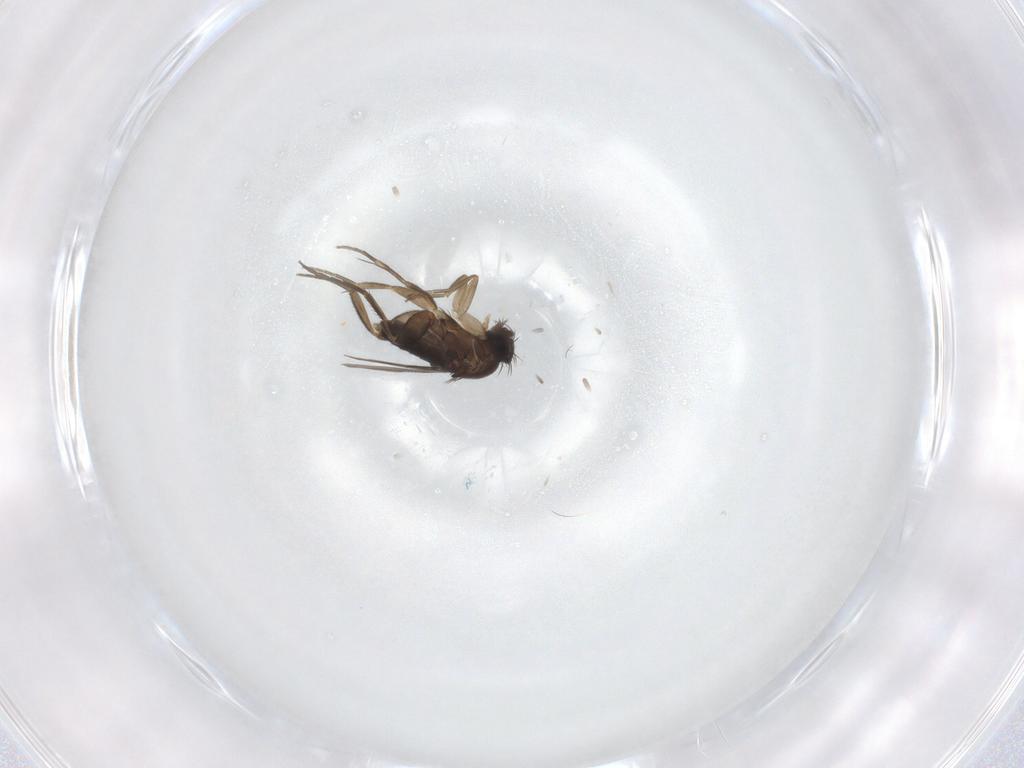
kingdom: Animalia
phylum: Arthropoda
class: Insecta
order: Diptera
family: Phoridae
